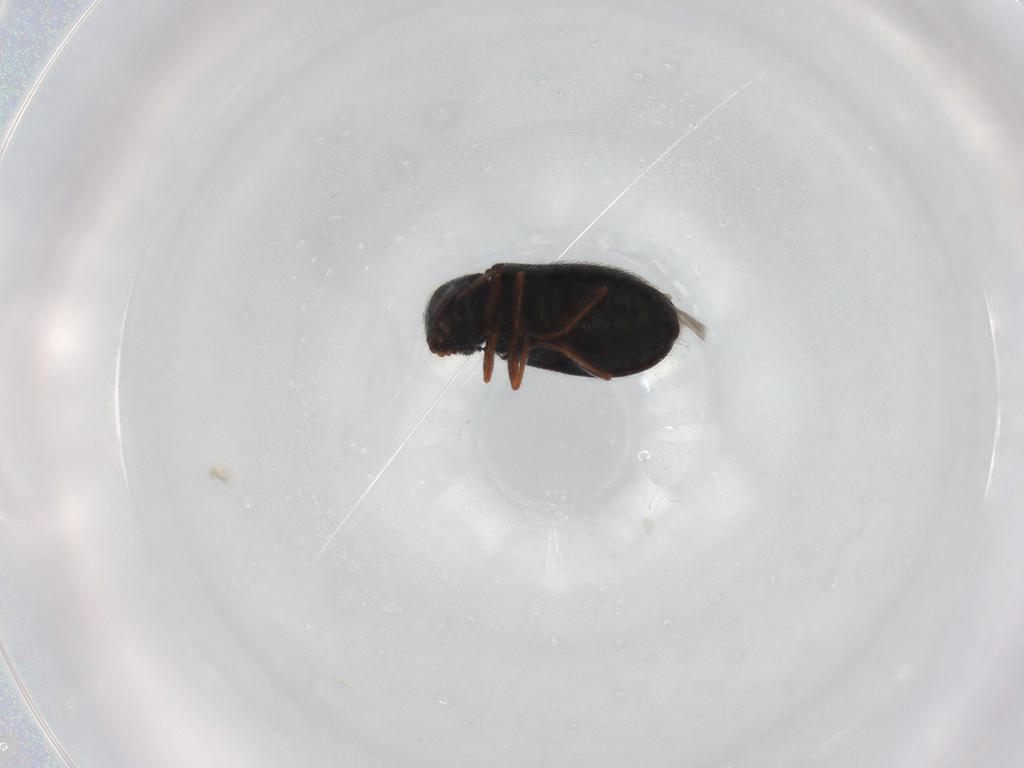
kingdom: Animalia
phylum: Arthropoda
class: Insecta
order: Coleoptera
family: Melyridae
